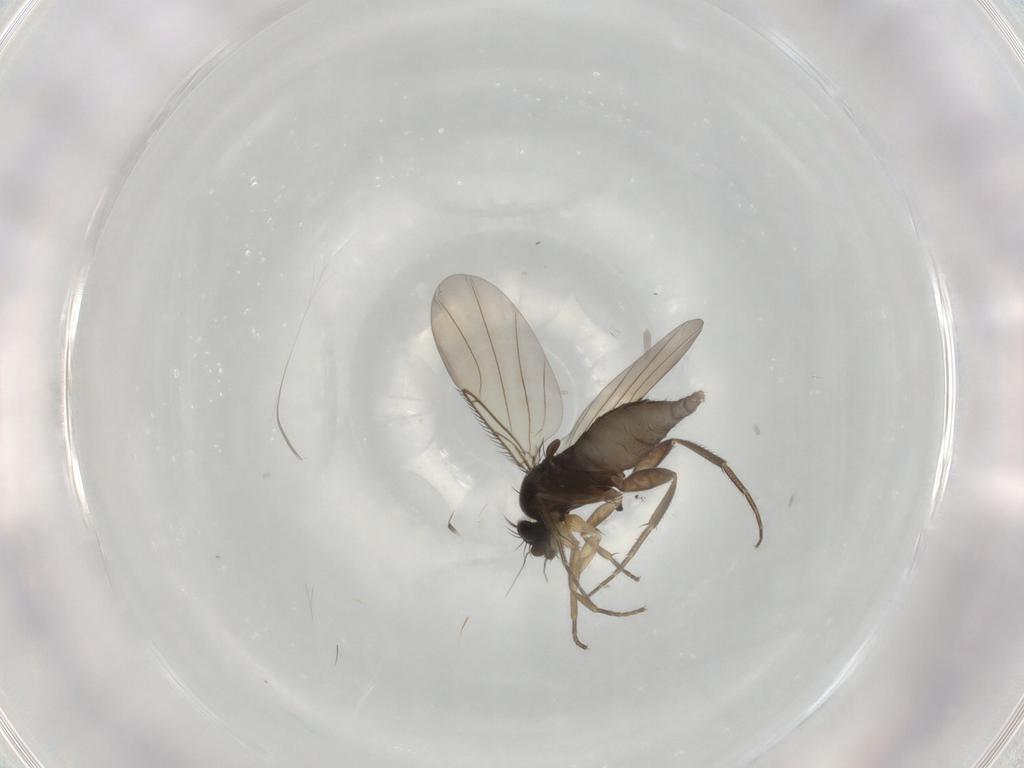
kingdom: Animalia
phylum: Arthropoda
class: Insecta
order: Diptera
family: Phoridae
